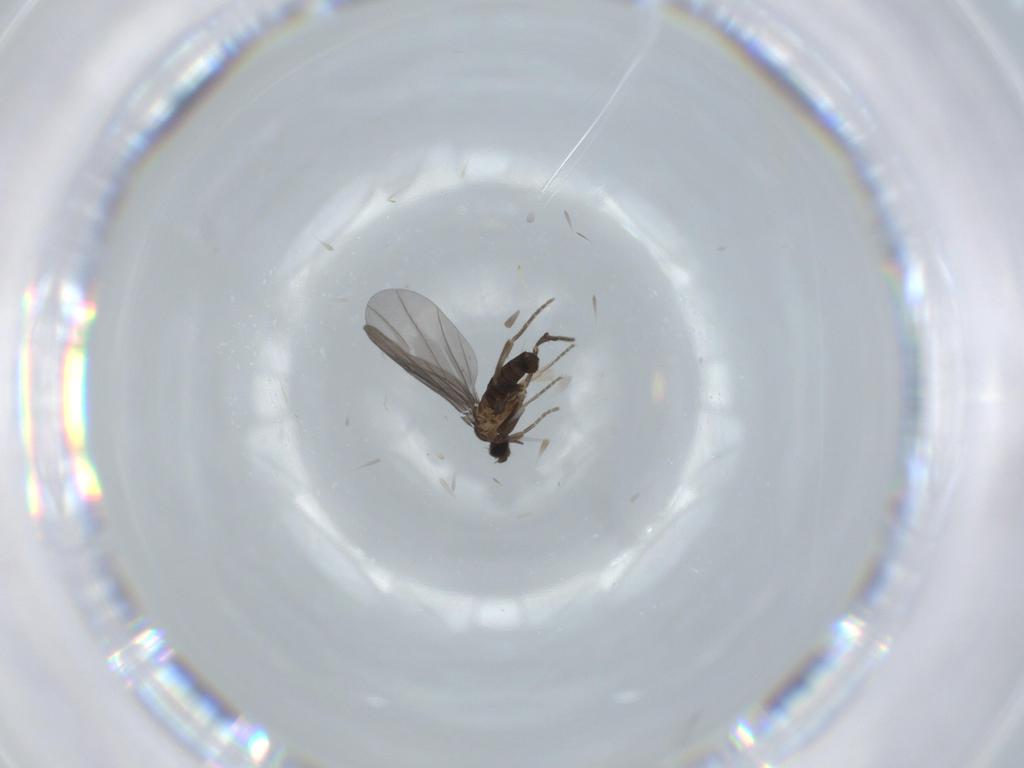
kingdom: Animalia
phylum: Arthropoda
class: Insecta
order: Diptera
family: Phoridae
